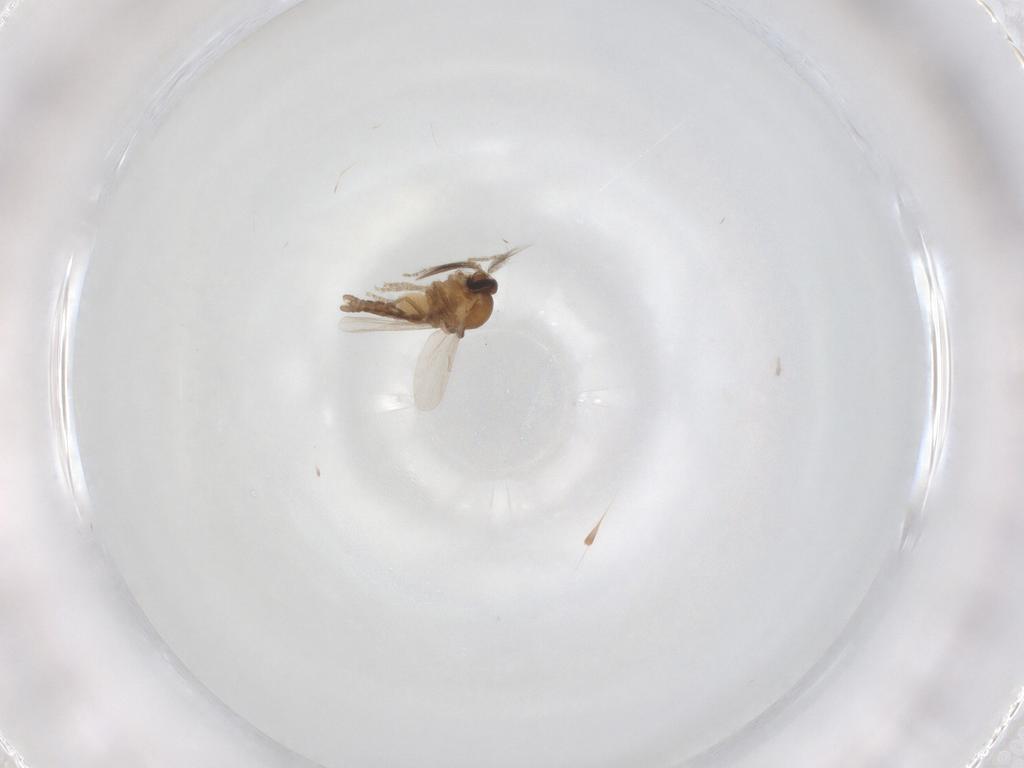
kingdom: Animalia
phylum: Arthropoda
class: Insecta
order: Diptera
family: Ceratopogonidae
